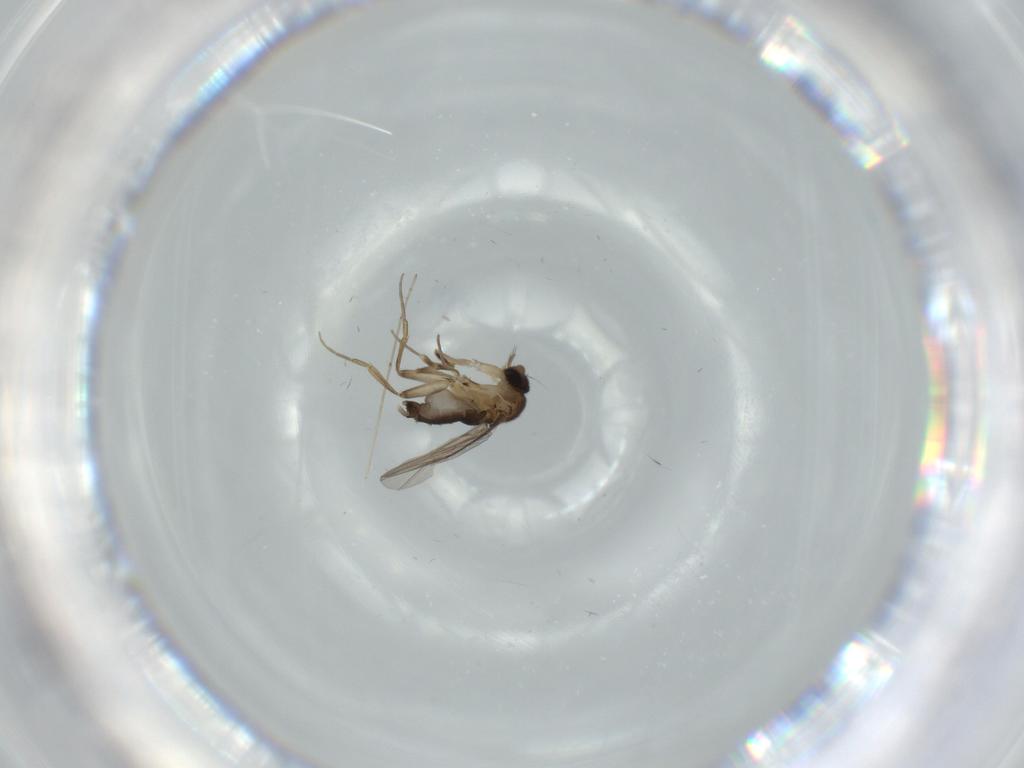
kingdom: Animalia
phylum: Arthropoda
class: Insecta
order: Diptera
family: Phoridae
